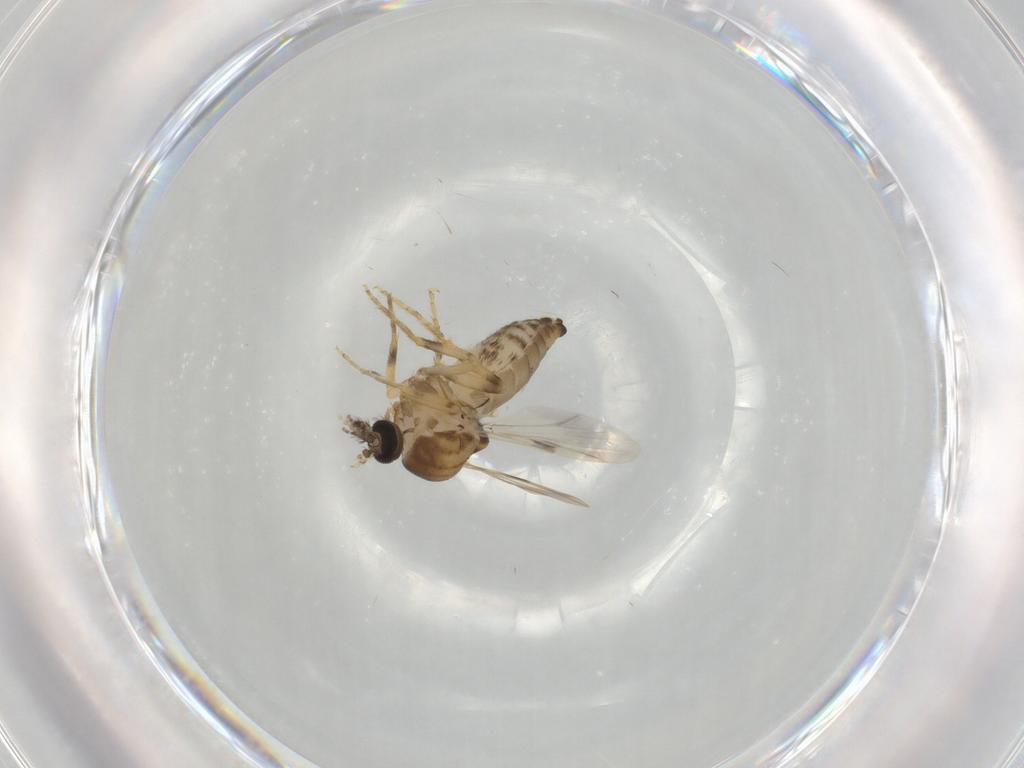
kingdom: Animalia
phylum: Arthropoda
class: Insecta
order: Diptera
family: Ceratopogonidae
